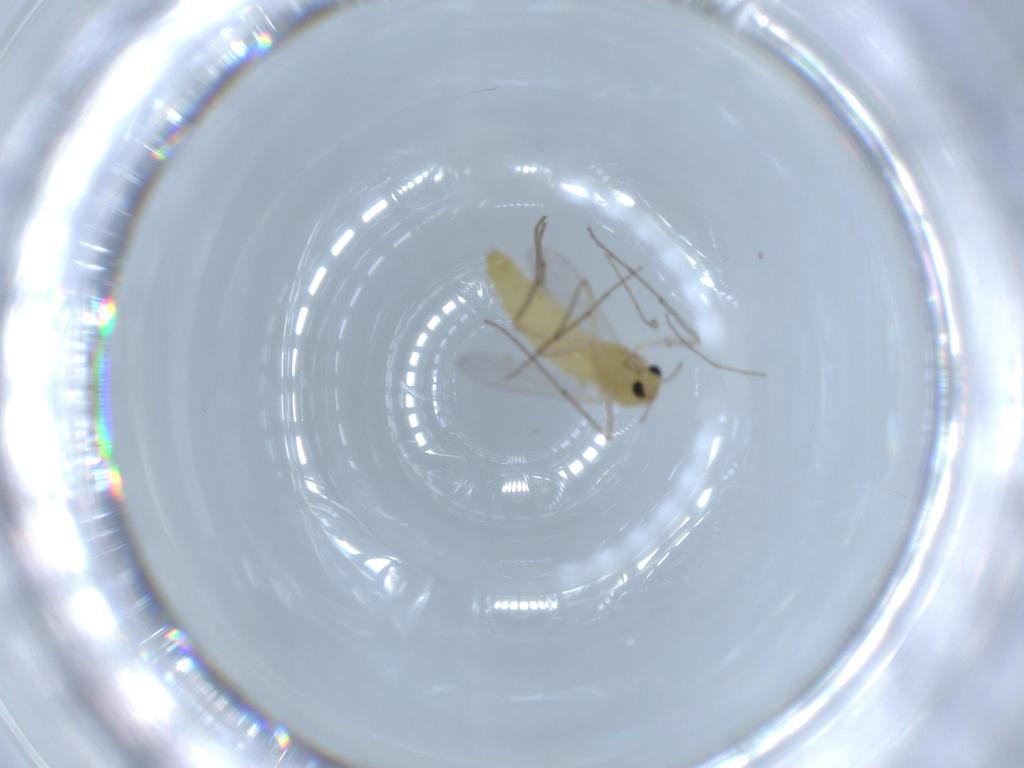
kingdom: Animalia
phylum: Arthropoda
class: Insecta
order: Diptera
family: Chironomidae
